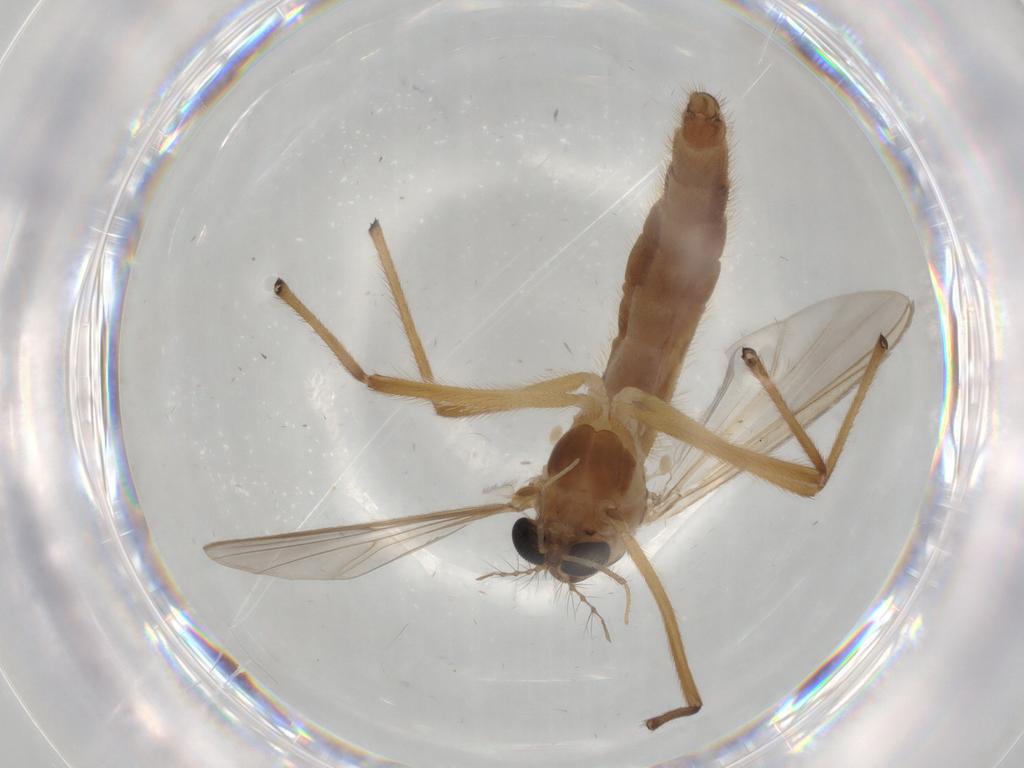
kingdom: Animalia
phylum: Arthropoda
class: Insecta
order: Diptera
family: Chironomidae
